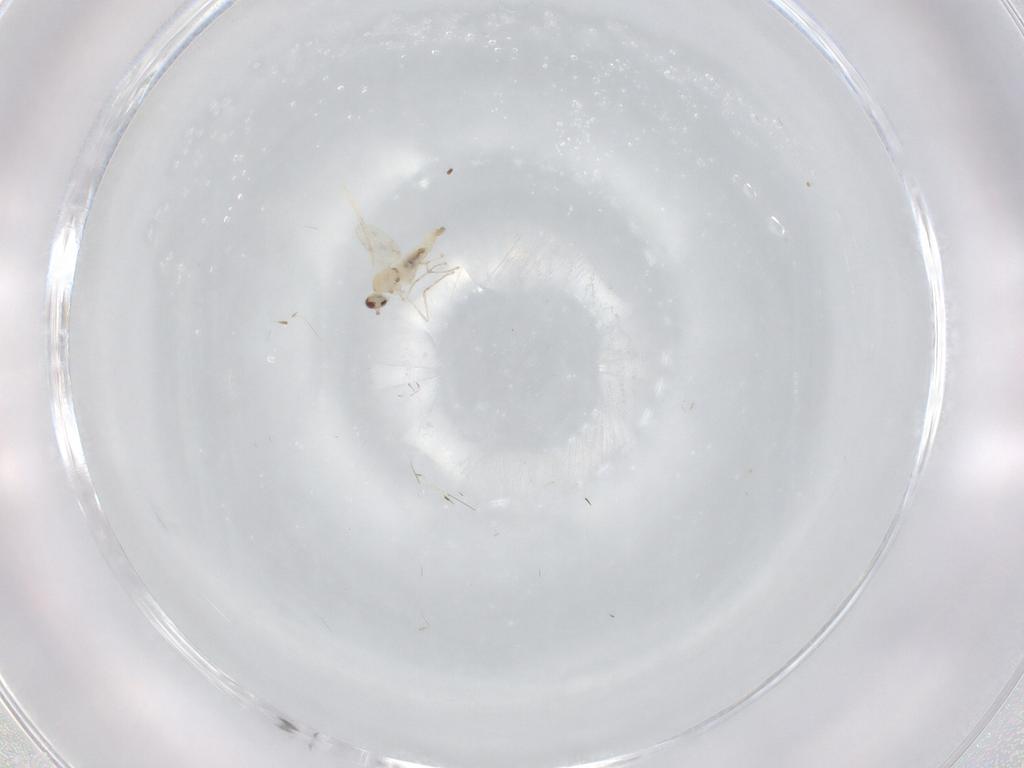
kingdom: Animalia
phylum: Arthropoda
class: Insecta
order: Diptera
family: Cecidomyiidae
